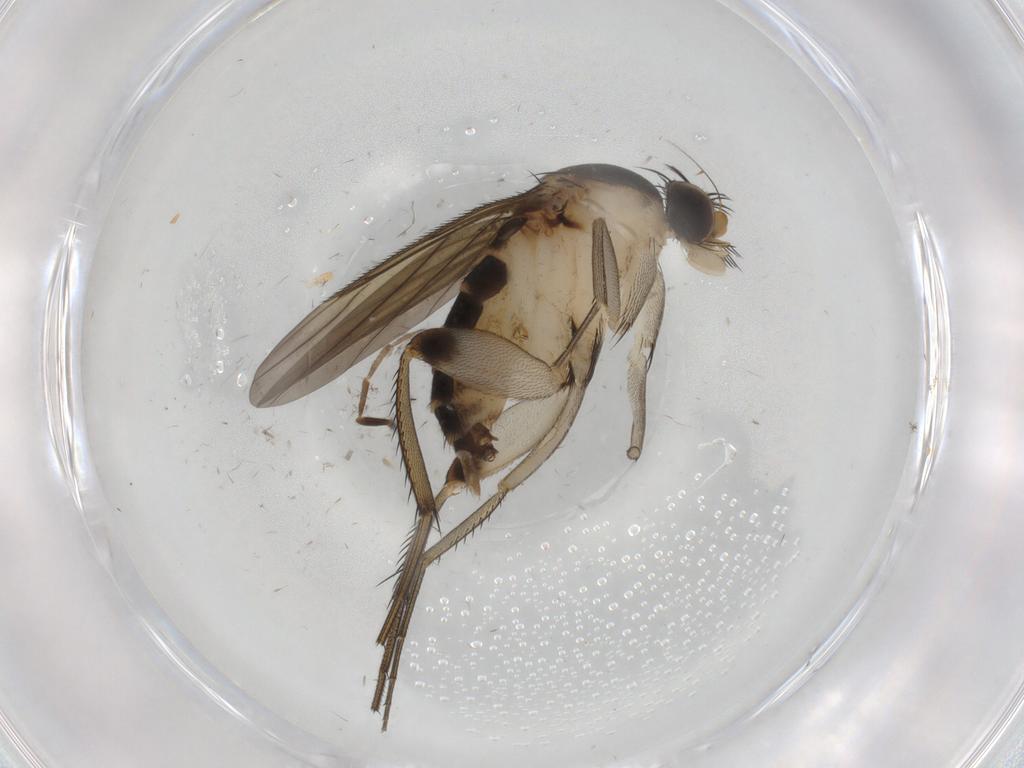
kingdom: Animalia
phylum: Arthropoda
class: Insecta
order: Diptera
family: Phoridae
